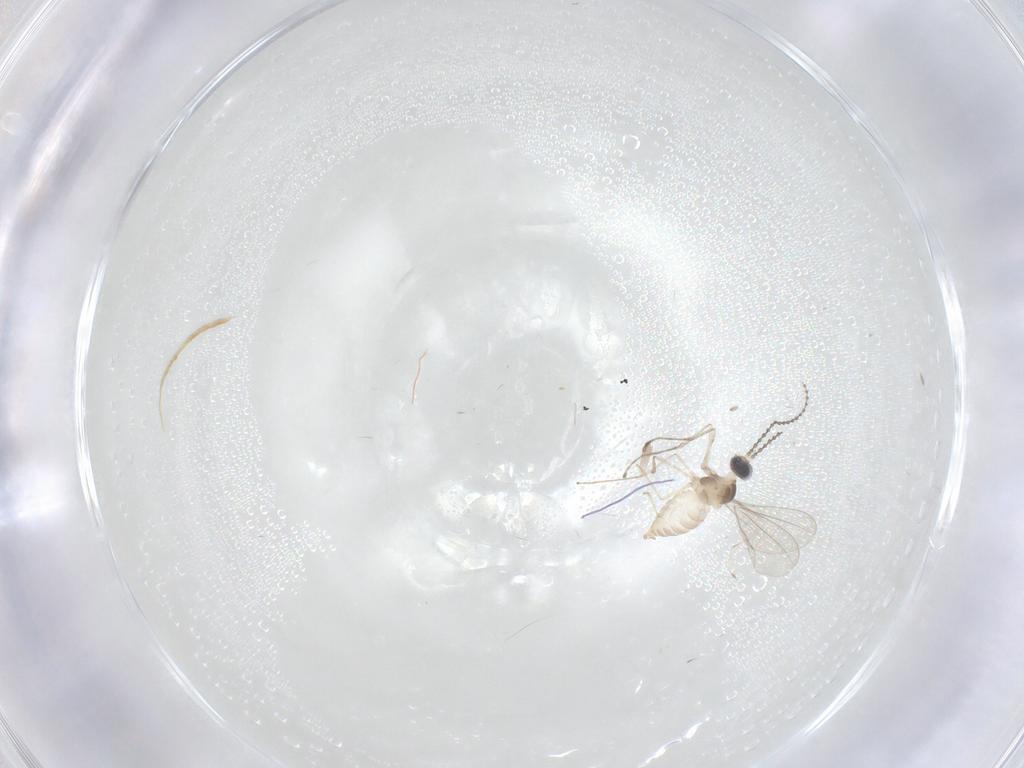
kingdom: Animalia
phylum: Arthropoda
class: Insecta
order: Diptera
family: Cecidomyiidae
